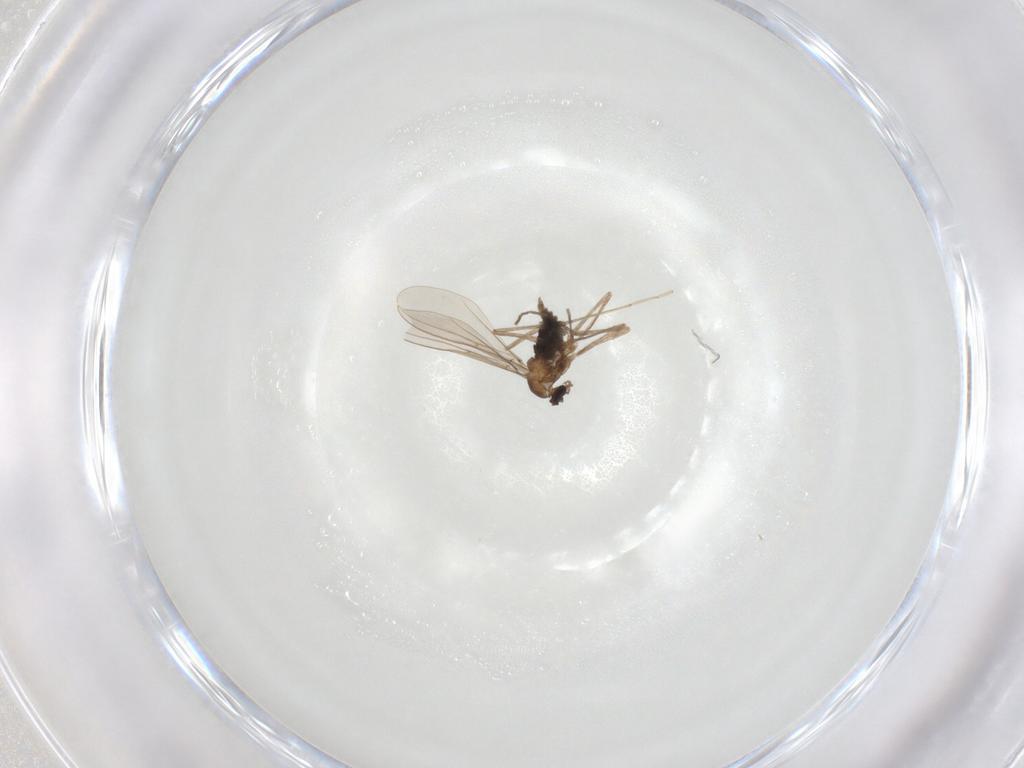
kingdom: Animalia
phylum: Arthropoda
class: Insecta
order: Diptera
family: Cecidomyiidae
